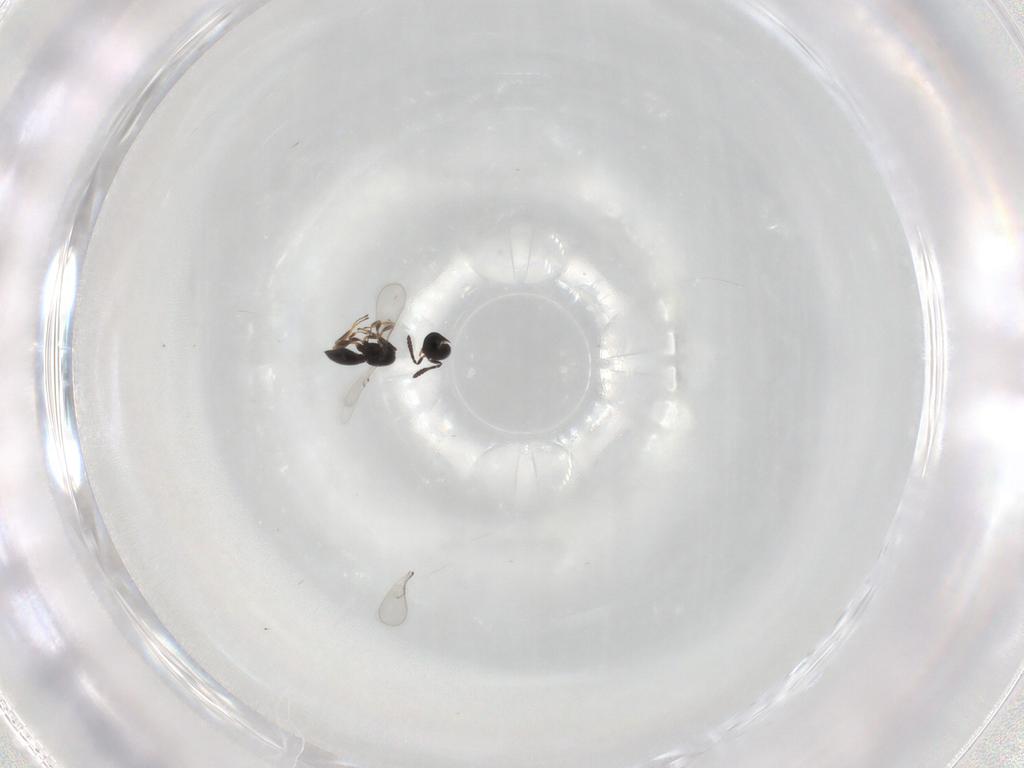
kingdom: Animalia
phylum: Arthropoda
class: Insecta
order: Hymenoptera
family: Scelionidae
